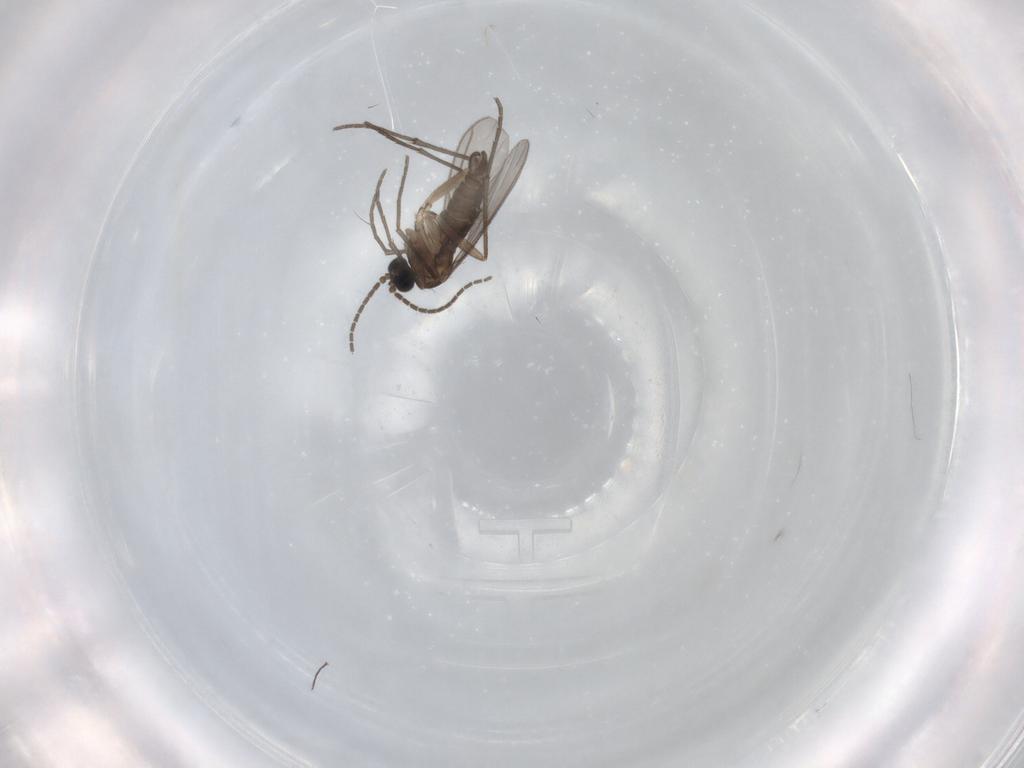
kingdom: Animalia
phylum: Arthropoda
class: Insecta
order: Diptera
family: Sciaridae
